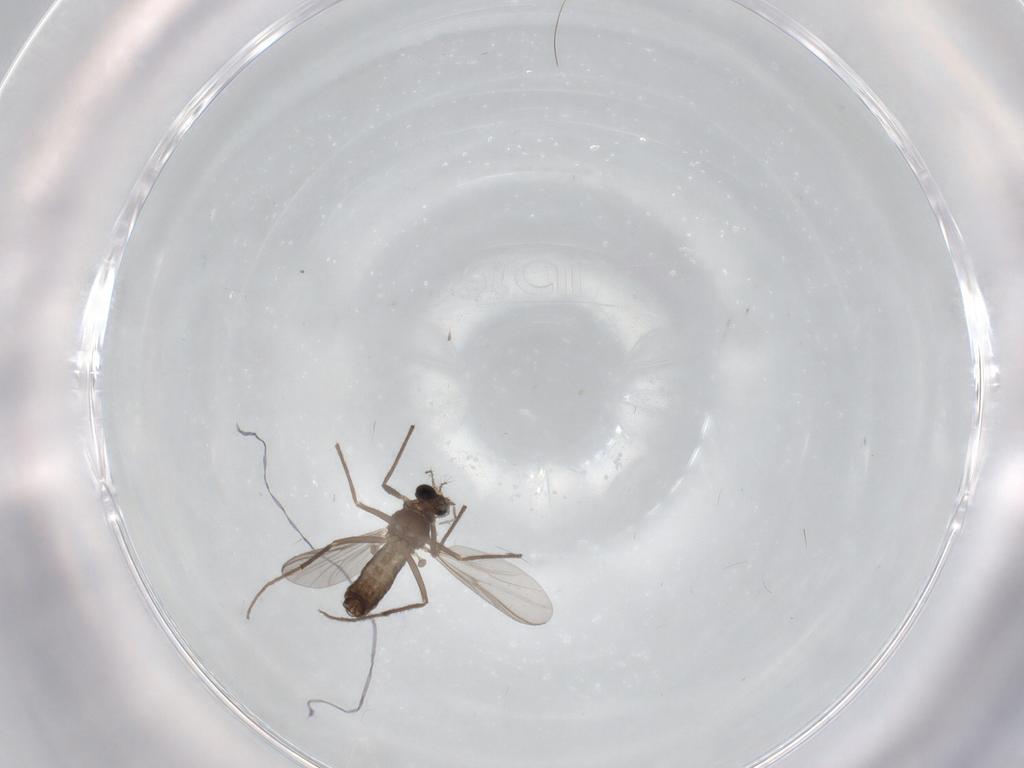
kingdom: Animalia
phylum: Arthropoda
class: Insecta
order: Diptera
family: Chironomidae
